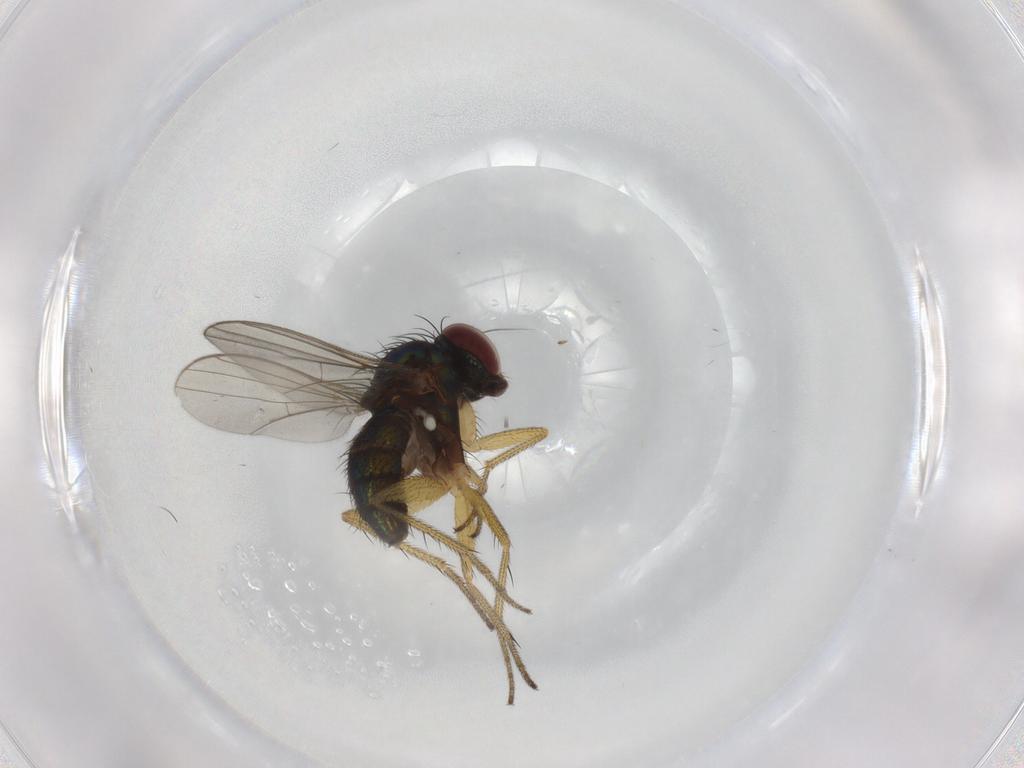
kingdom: Animalia
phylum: Arthropoda
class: Insecta
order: Diptera
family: Dolichopodidae
